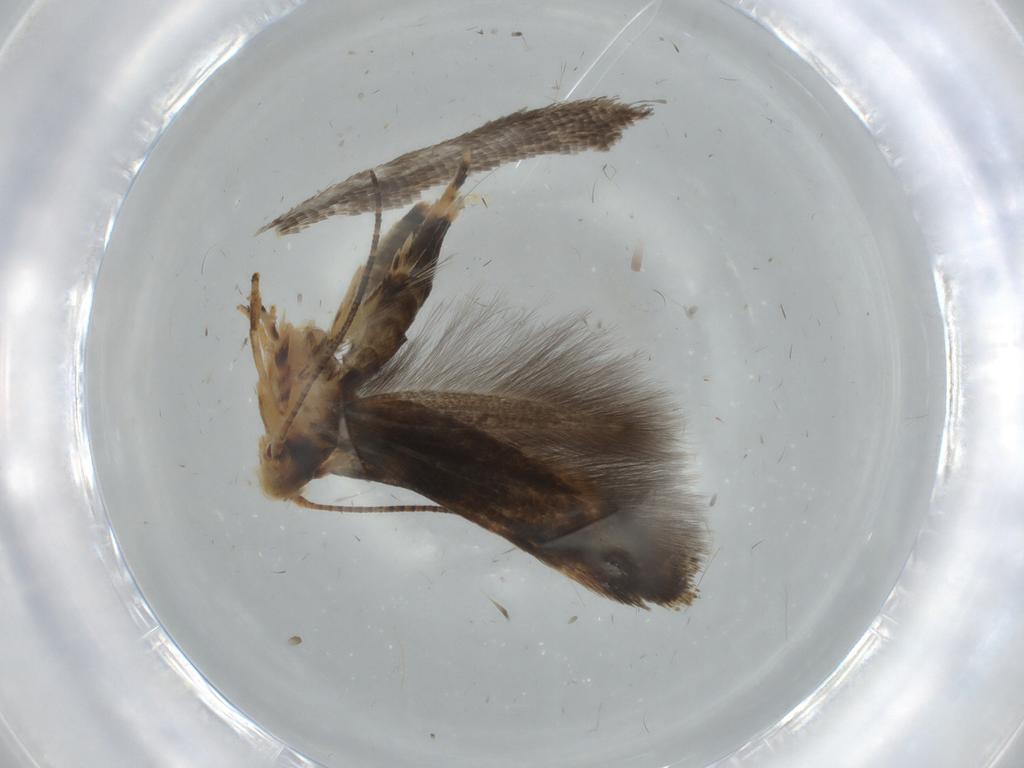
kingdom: Animalia
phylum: Arthropoda
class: Insecta
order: Lepidoptera
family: Momphidae
